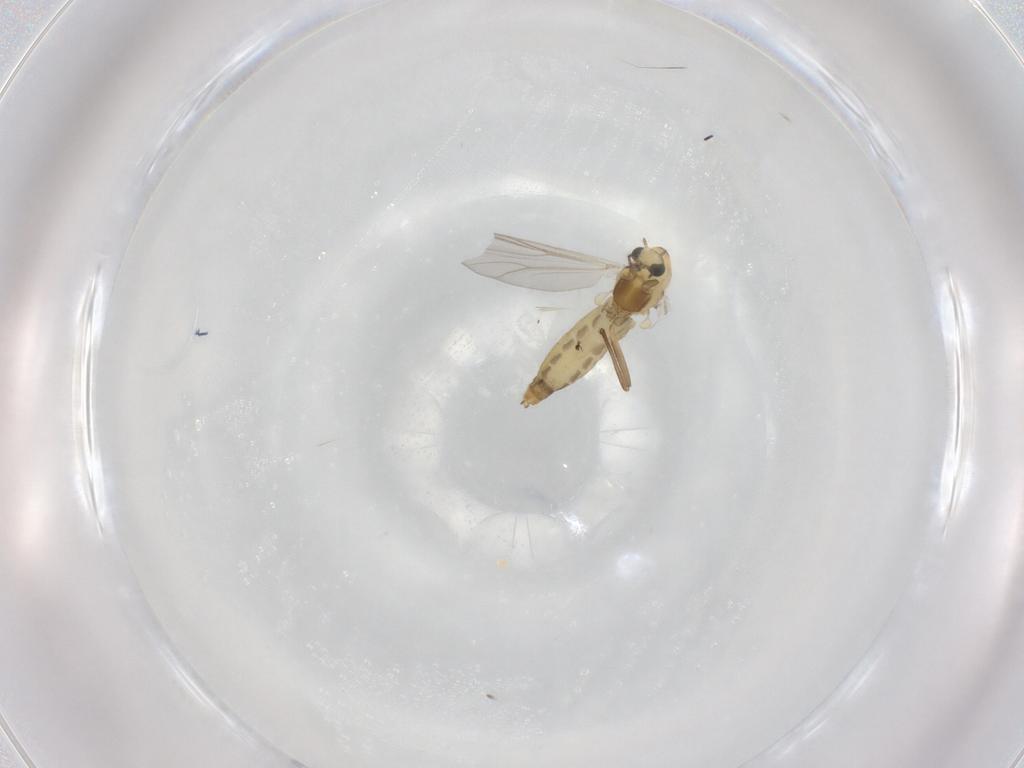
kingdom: Animalia
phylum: Arthropoda
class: Insecta
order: Diptera
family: Chironomidae
